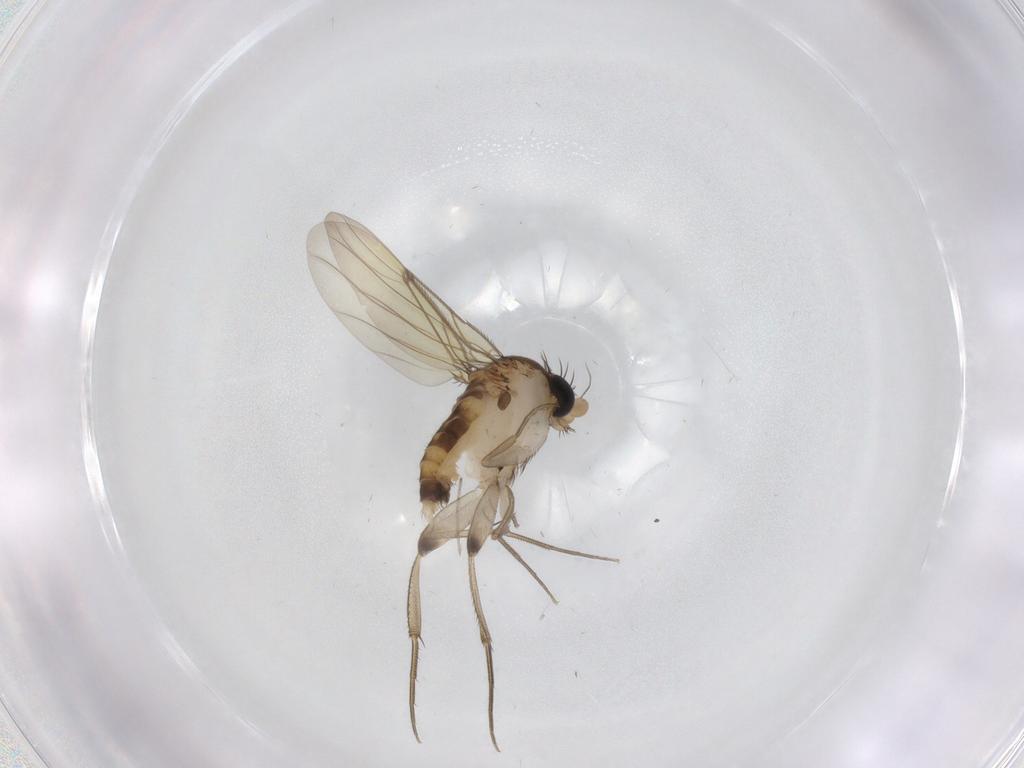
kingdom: Animalia
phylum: Arthropoda
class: Insecta
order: Diptera
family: Phoridae
